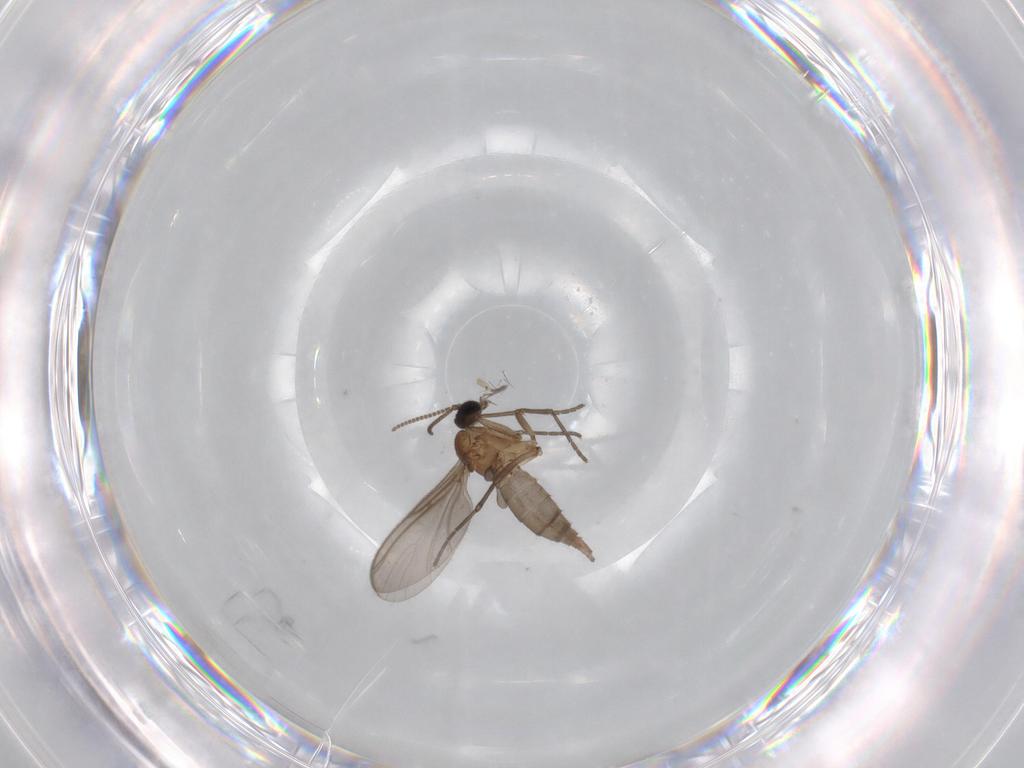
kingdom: Animalia
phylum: Arthropoda
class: Insecta
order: Diptera
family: Sciaridae
